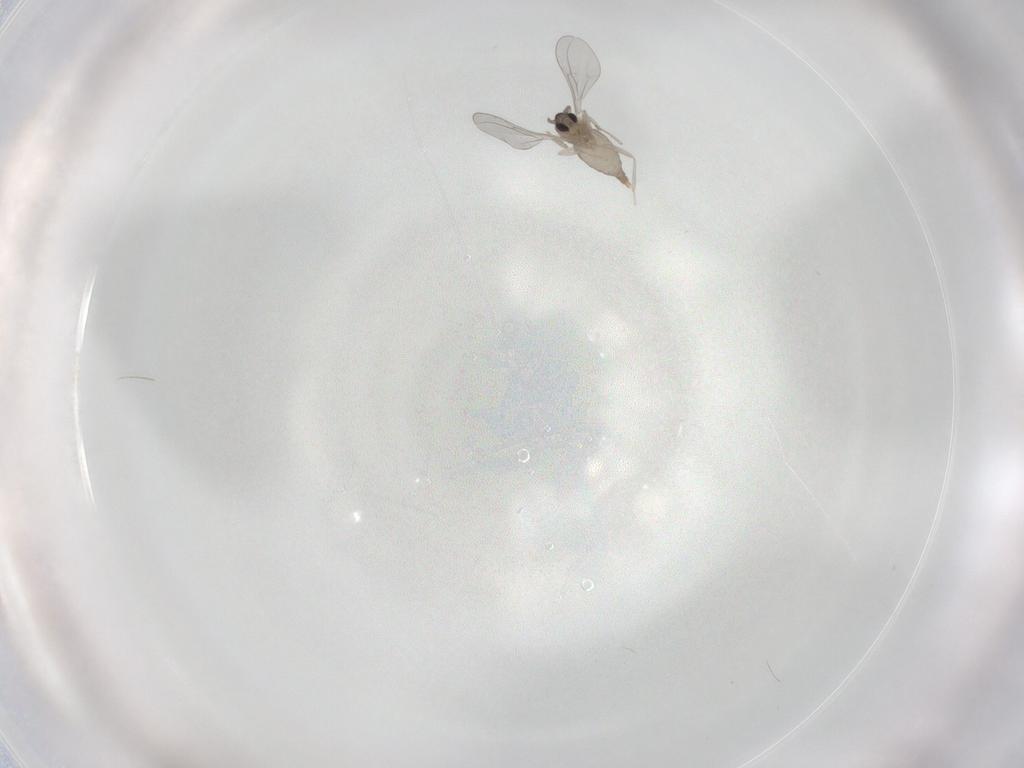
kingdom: Animalia
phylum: Arthropoda
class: Insecta
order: Diptera
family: Cecidomyiidae
